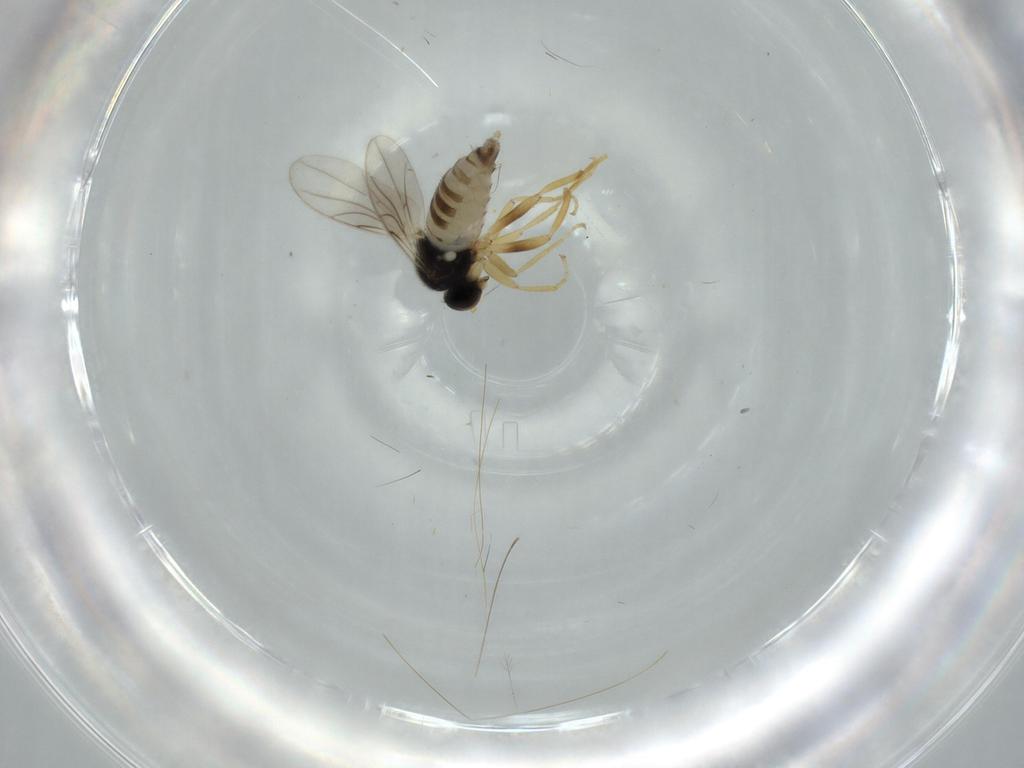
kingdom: Animalia
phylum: Arthropoda
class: Insecta
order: Diptera
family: Hybotidae
